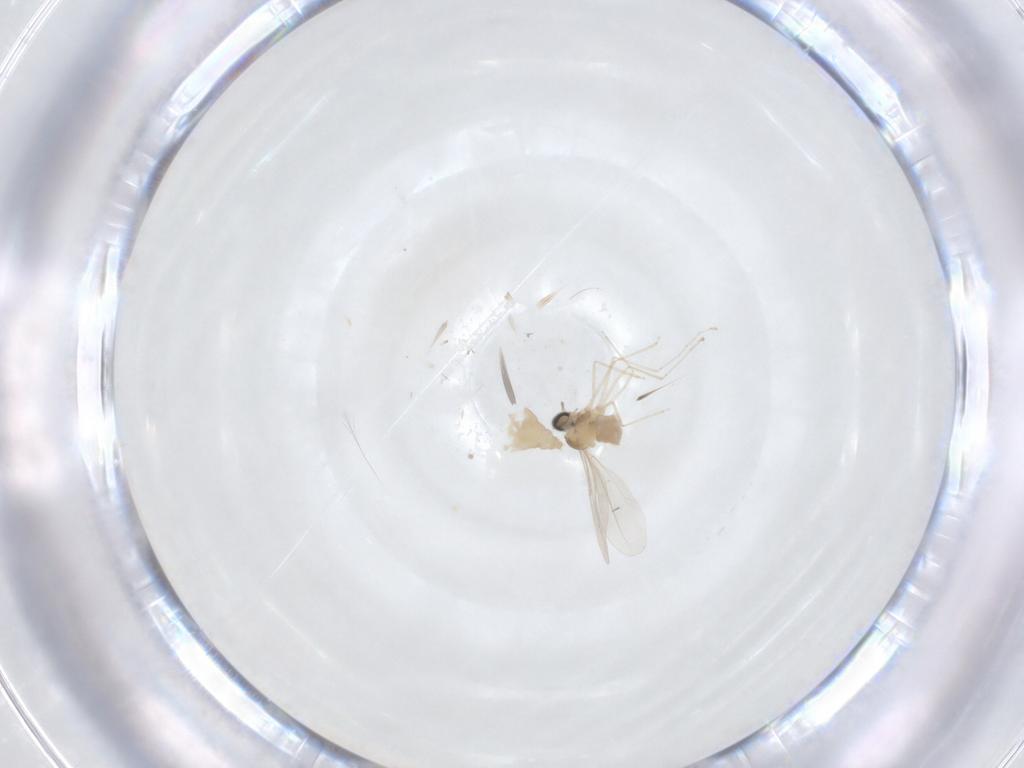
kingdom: Animalia
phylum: Arthropoda
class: Insecta
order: Diptera
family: Cecidomyiidae
